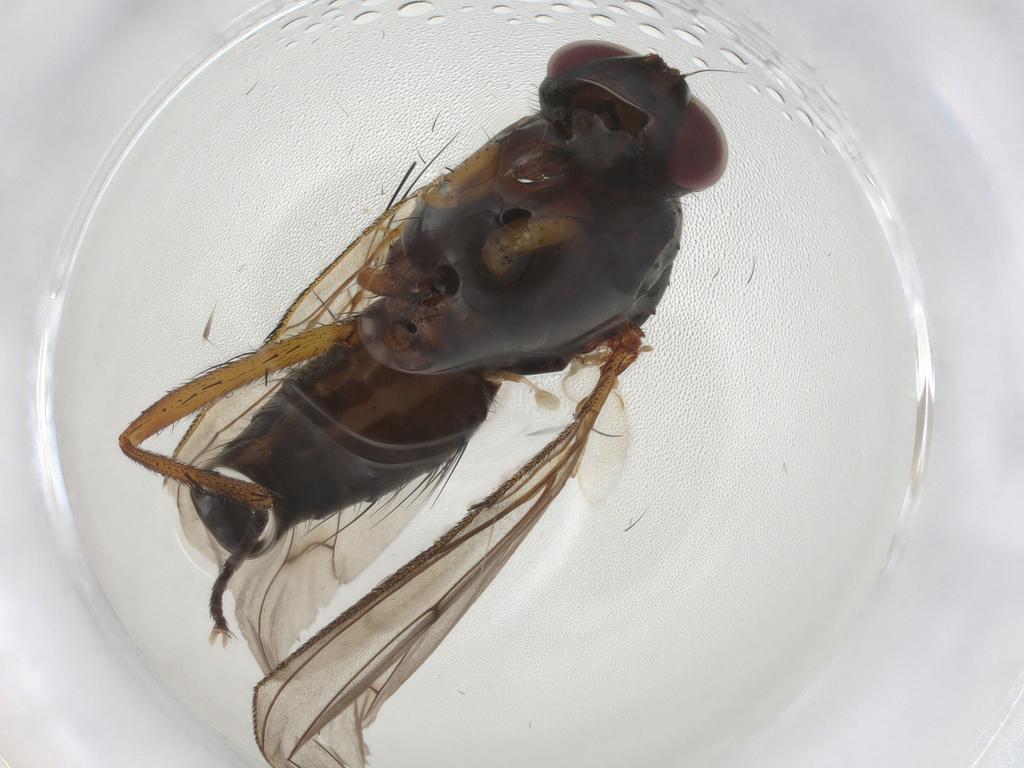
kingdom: Animalia
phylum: Arthropoda
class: Insecta
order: Diptera
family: Anthomyiidae
